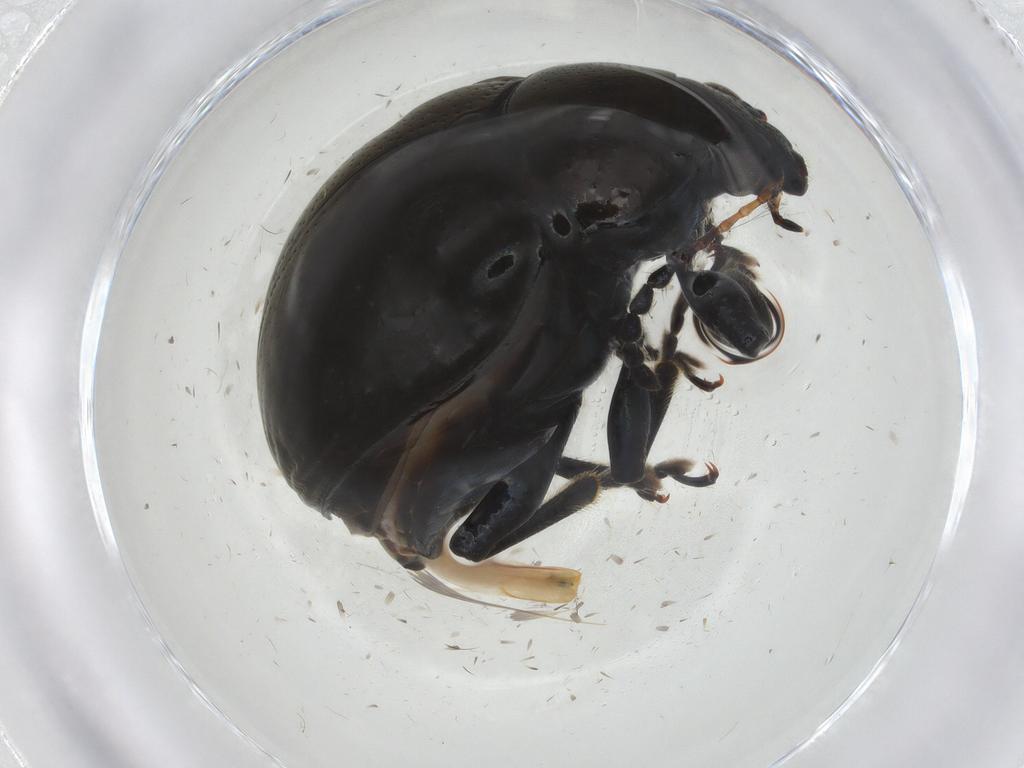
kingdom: Animalia
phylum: Arthropoda
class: Insecta
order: Coleoptera
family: Chrysomelidae
